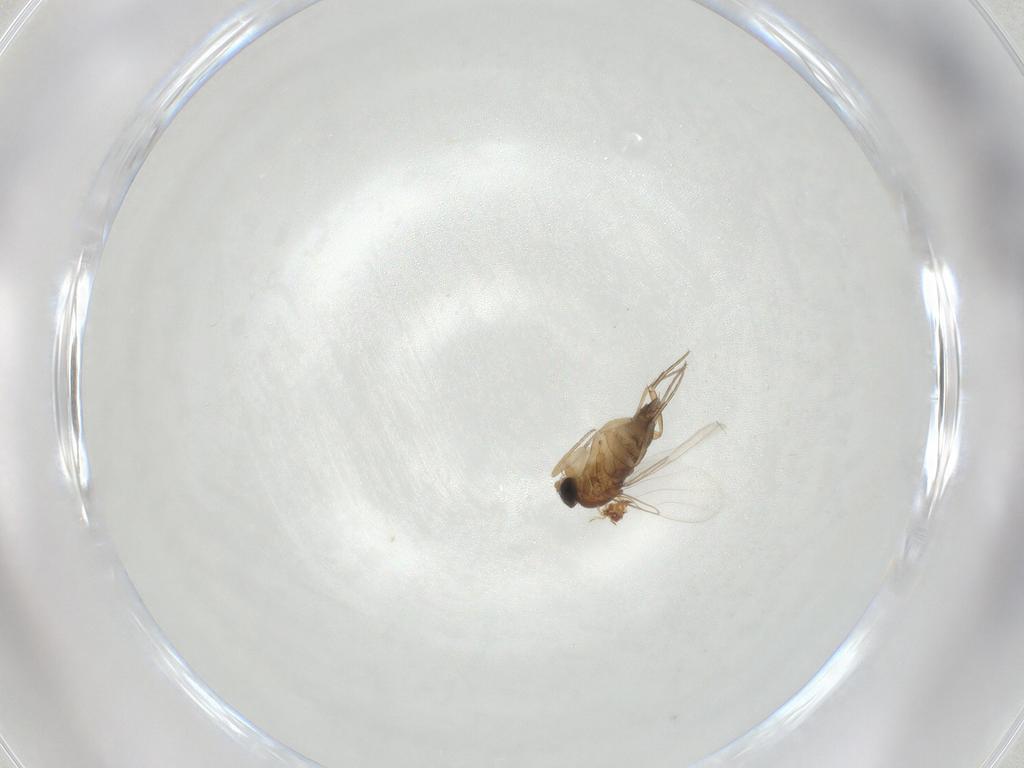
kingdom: Animalia
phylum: Arthropoda
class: Insecta
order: Diptera
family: Phoridae
